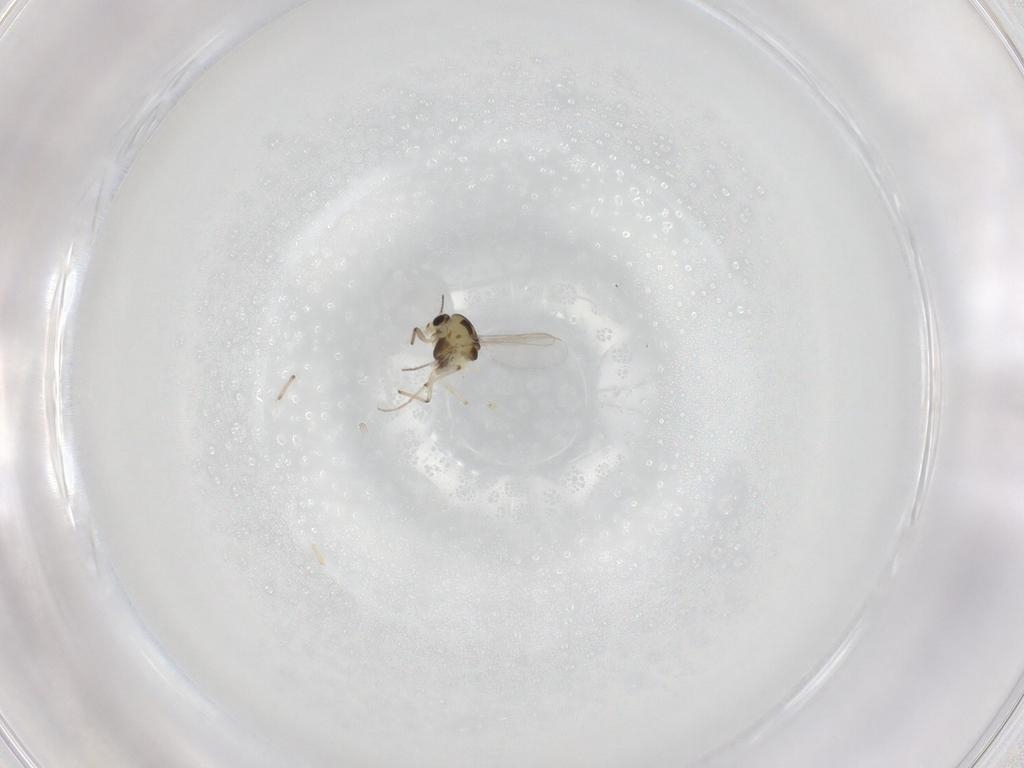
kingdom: Animalia
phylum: Arthropoda
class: Insecta
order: Diptera
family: Chironomidae
